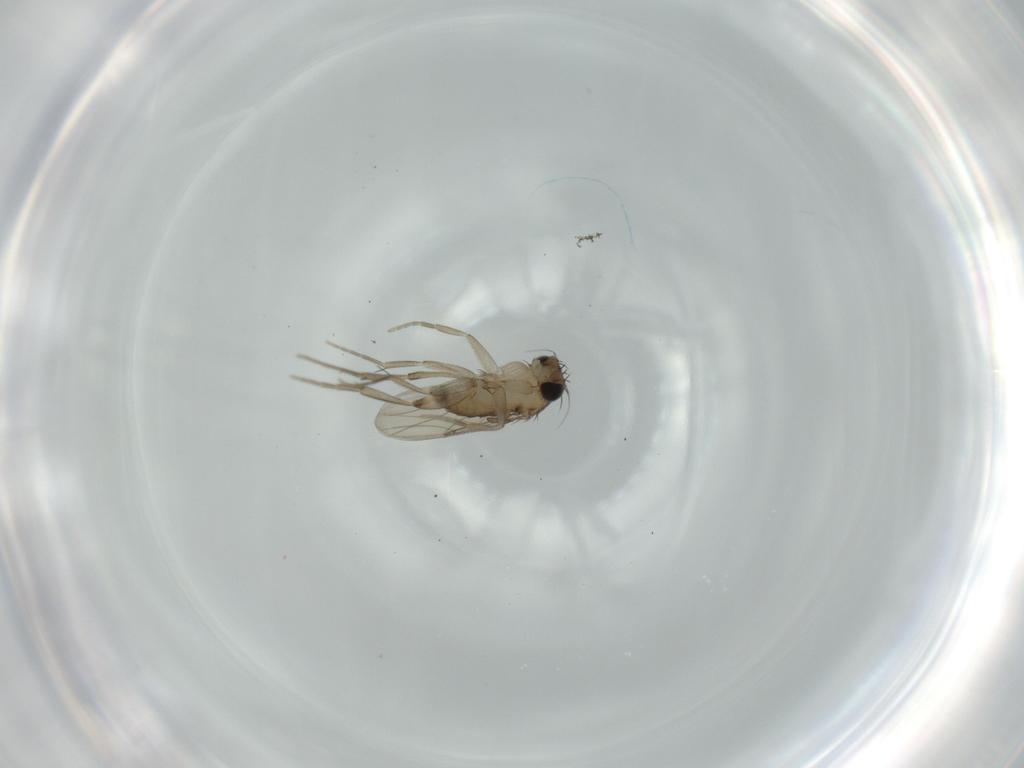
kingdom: Animalia
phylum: Arthropoda
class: Insecta
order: Diptera
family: Phoridae
